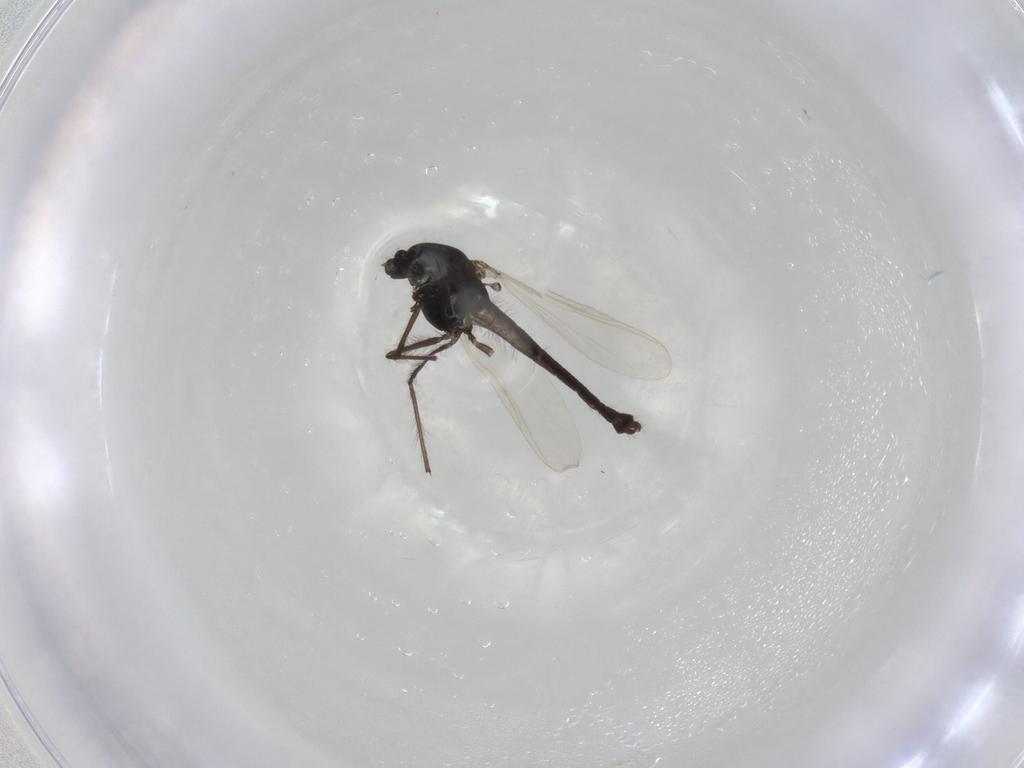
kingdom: Animalia
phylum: Arthropoda
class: Insecta
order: Diptera
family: Chironomidae
